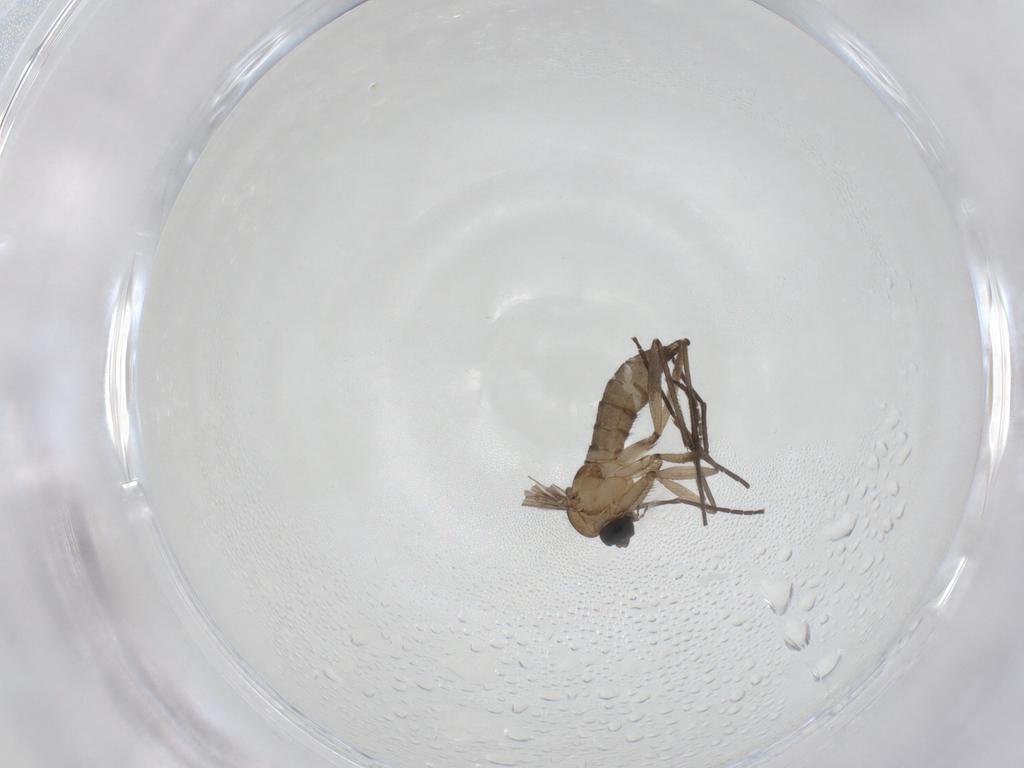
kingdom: Animalia
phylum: Arthropoda
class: Insecta
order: Diptera
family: Sciaridae
